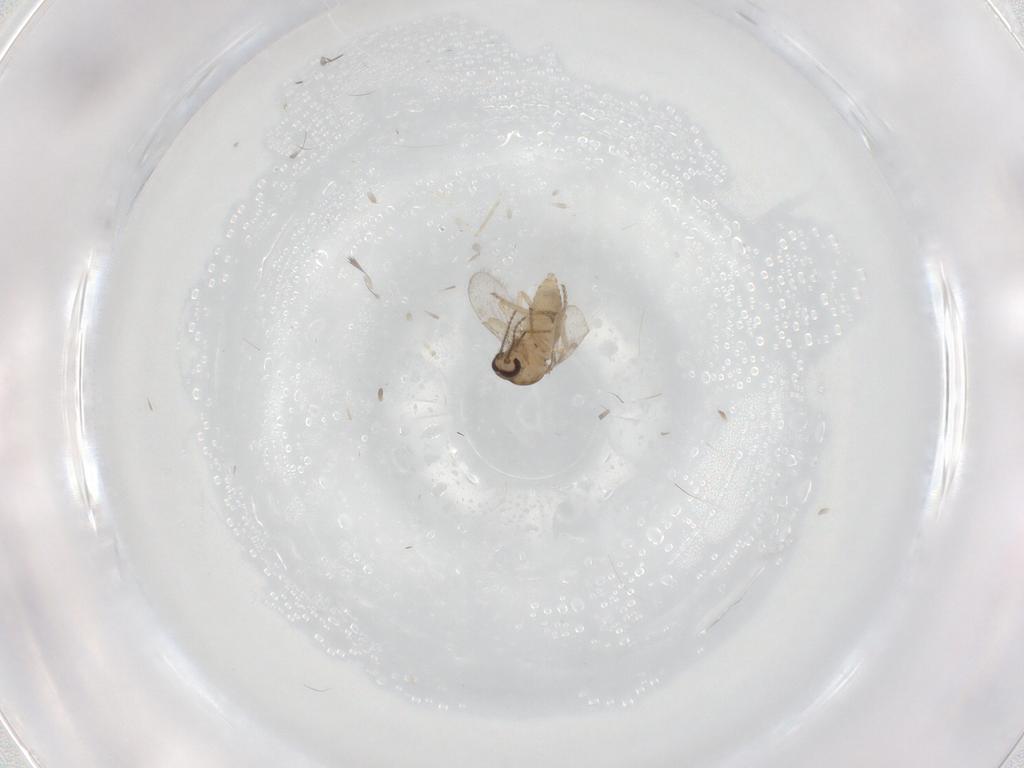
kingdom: Animalia
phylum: Arthropoda
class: Insecta
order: Diptera
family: Ceratopogonidae
